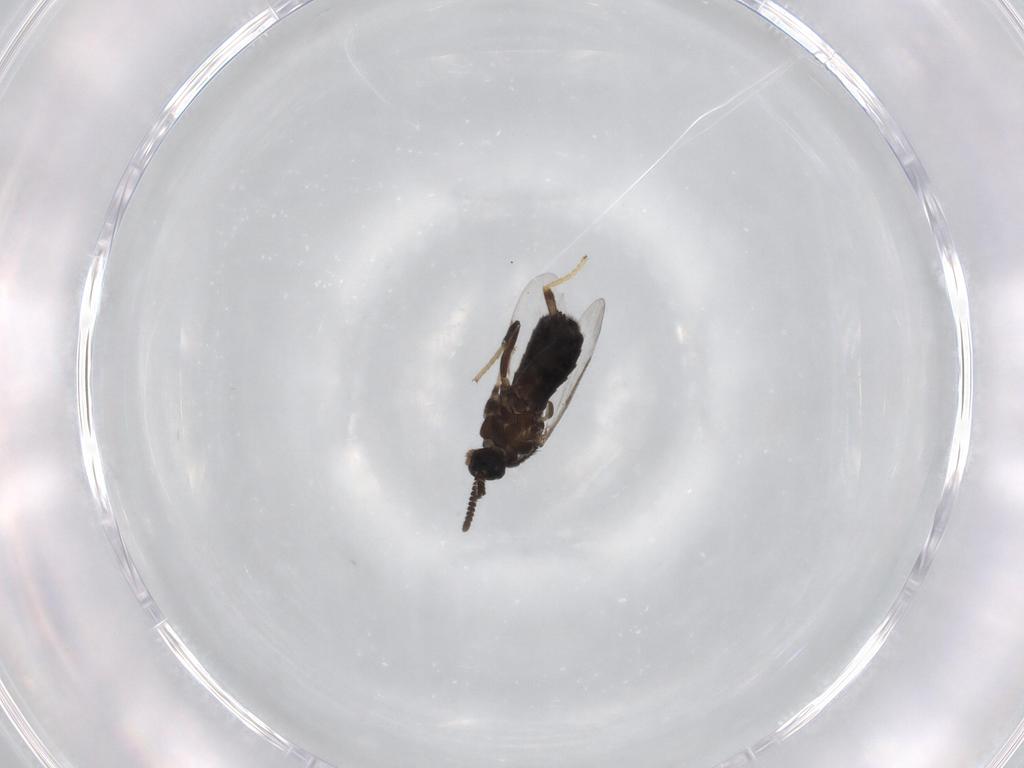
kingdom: Animalia
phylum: Arthropoda
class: Insecta
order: Diptera
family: Scatopsidae
